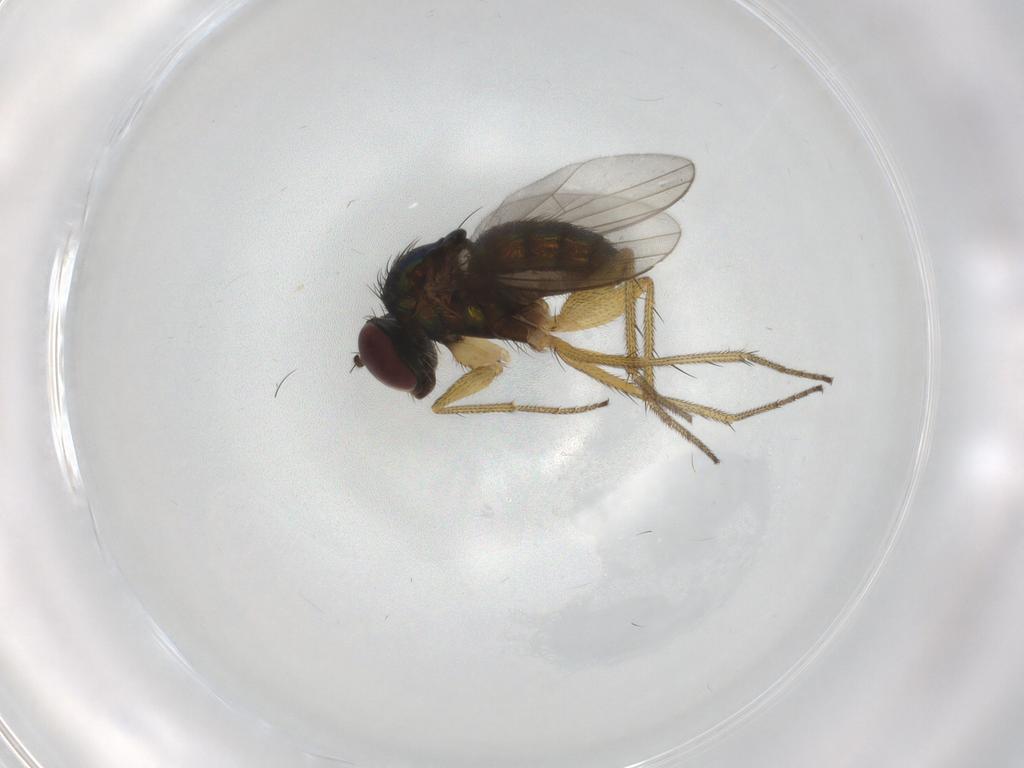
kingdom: Animalia
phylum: Arthropoda
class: Insecta
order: Diptera
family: Dolichopodidae
